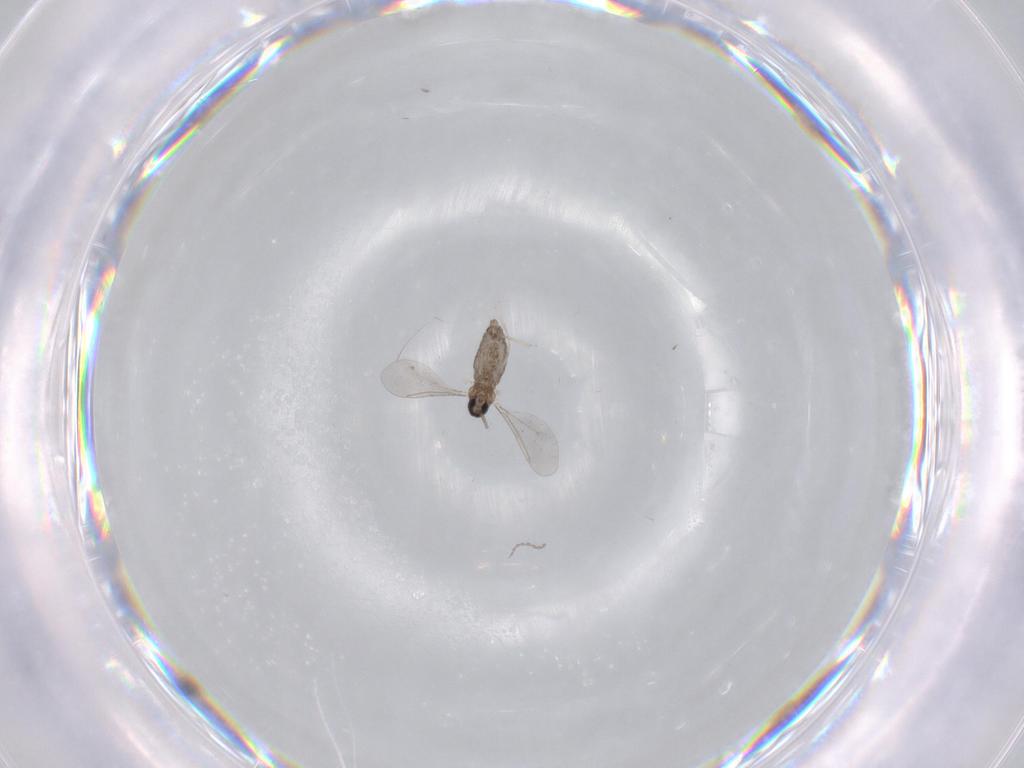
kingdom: Animalia
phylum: Arthropoda
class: Insecta
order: Diptera
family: Cecidomyiidae
